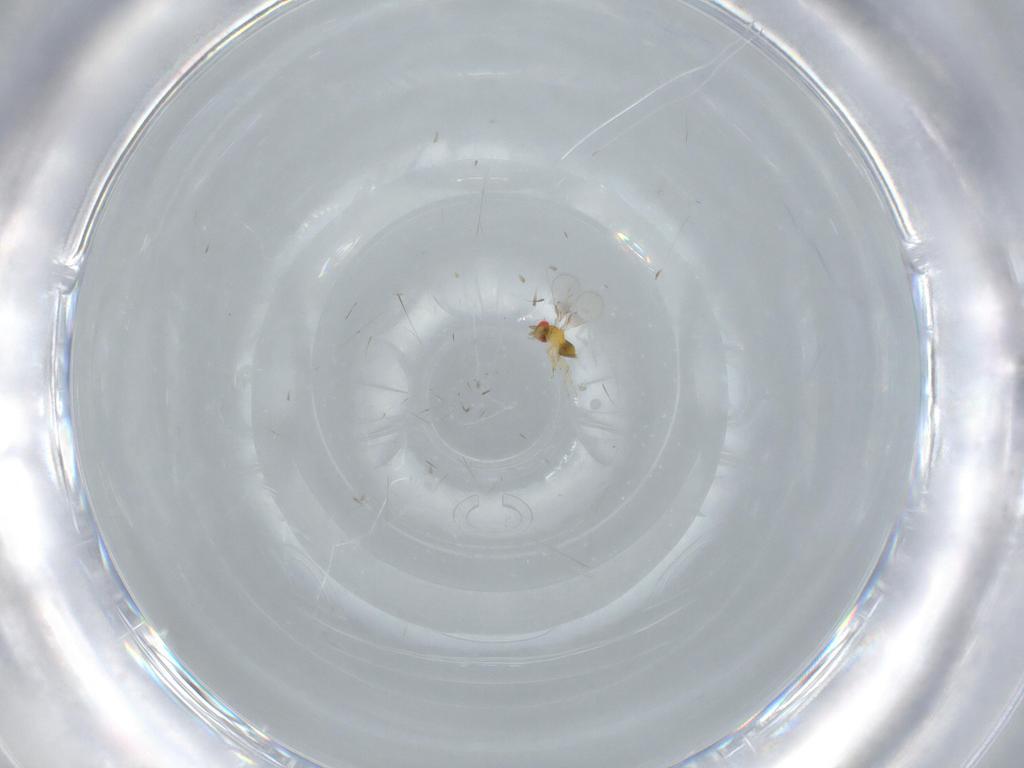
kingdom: Animalia
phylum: Arthropoda
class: Insecta
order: Hymenoptera
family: Trichogrammatidae
